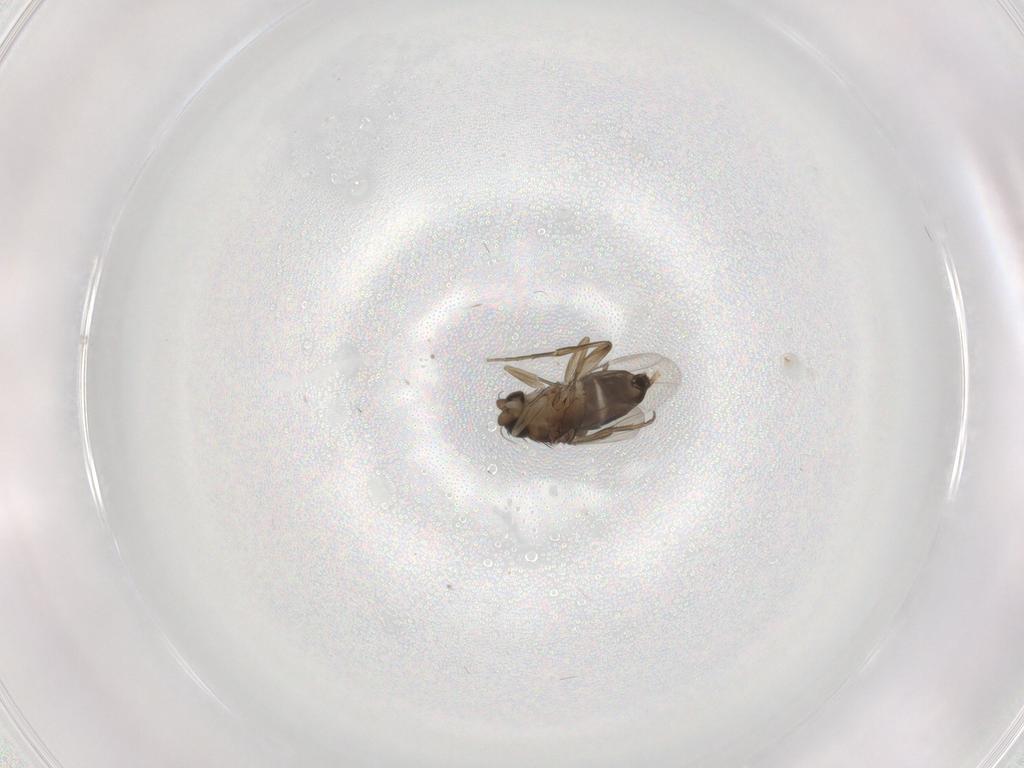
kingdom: Animalia
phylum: Arthropoda
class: Insecta
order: Diptera
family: Phoridae
